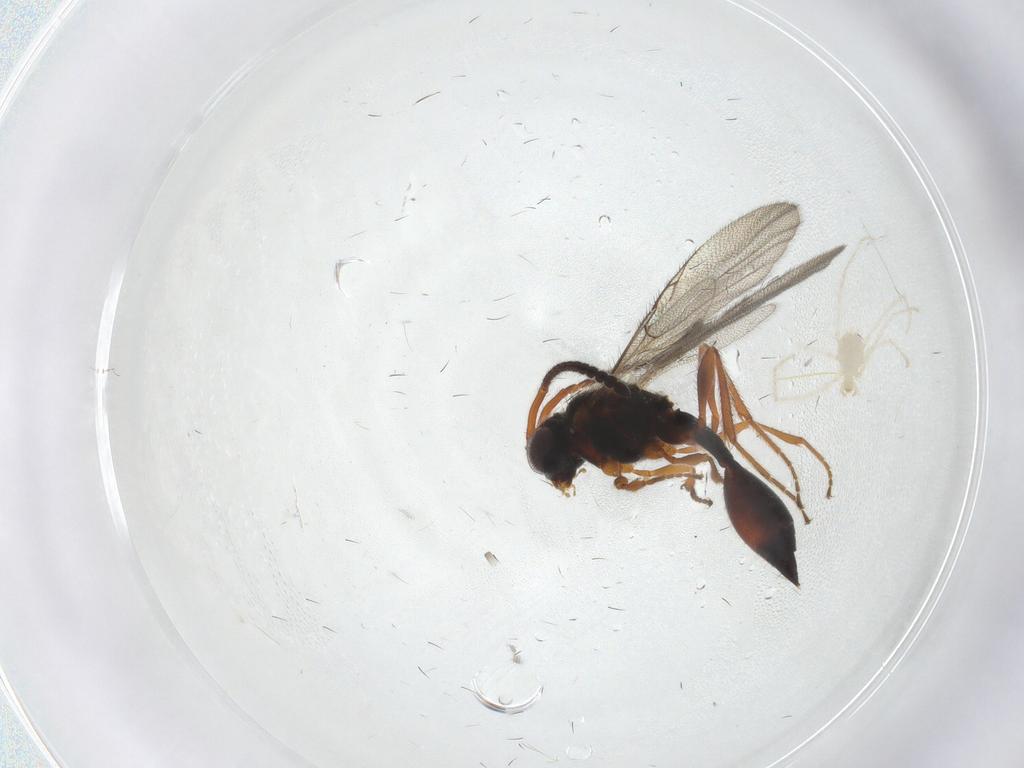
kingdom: Animalia
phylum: Arthropoda
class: Insecta
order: Hymenoptera
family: Diapriidae
